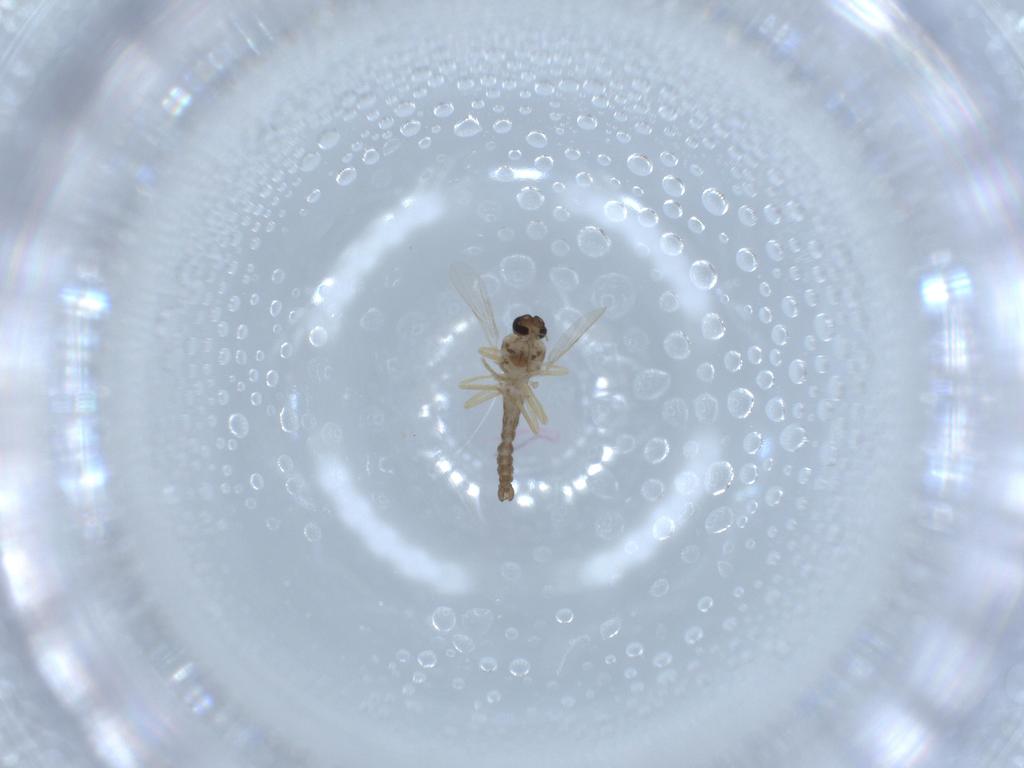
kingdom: Animalia
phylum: Arthropoda
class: Insecta
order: Diptera
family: Ceratopogonidae
